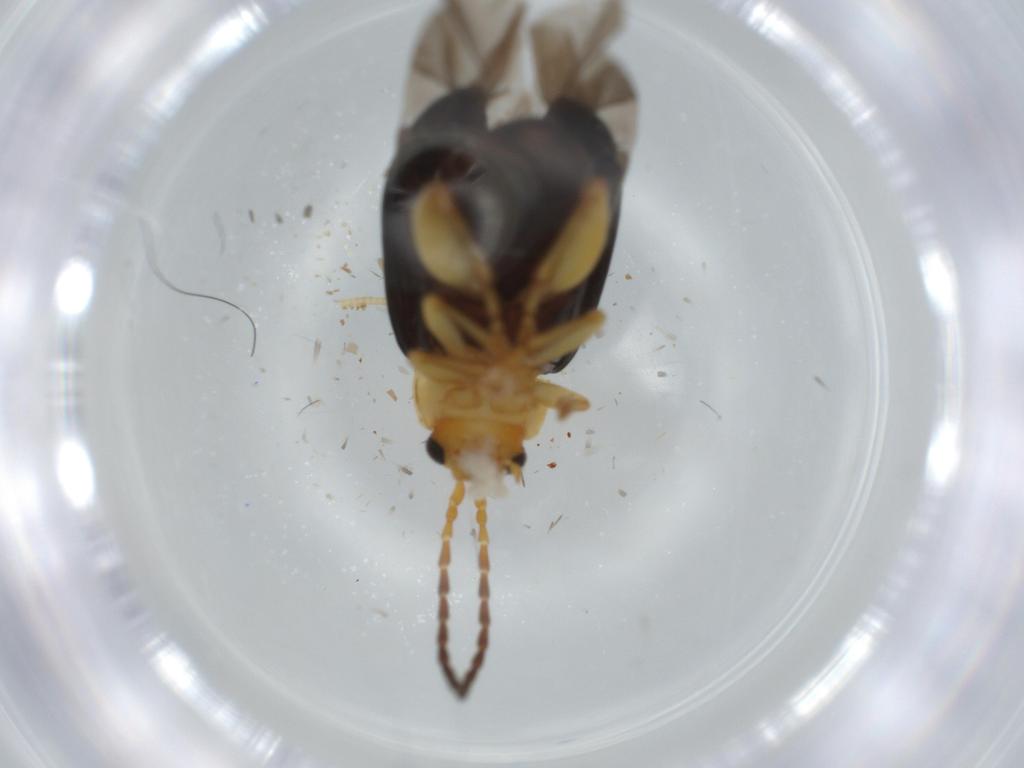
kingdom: Animalia
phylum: Arthropoda
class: Insecta
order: Coleoptera
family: Chrysomelidae
